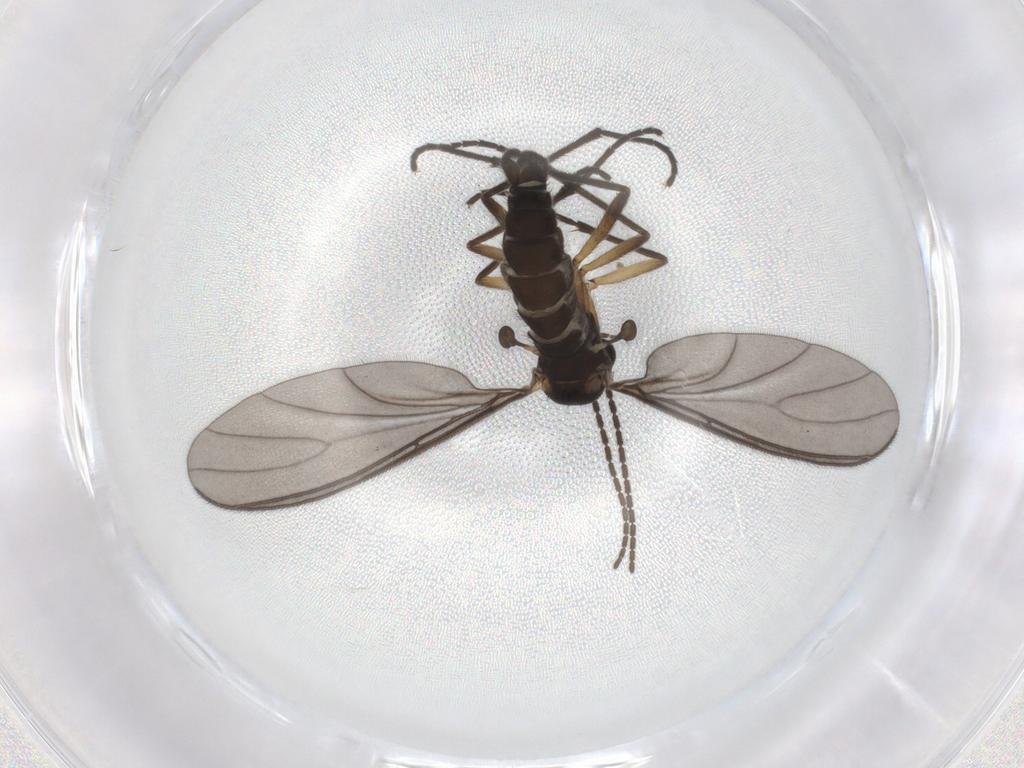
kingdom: Animalia
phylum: Arthropoda
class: Insecta
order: Diptera
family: Sciaridae
